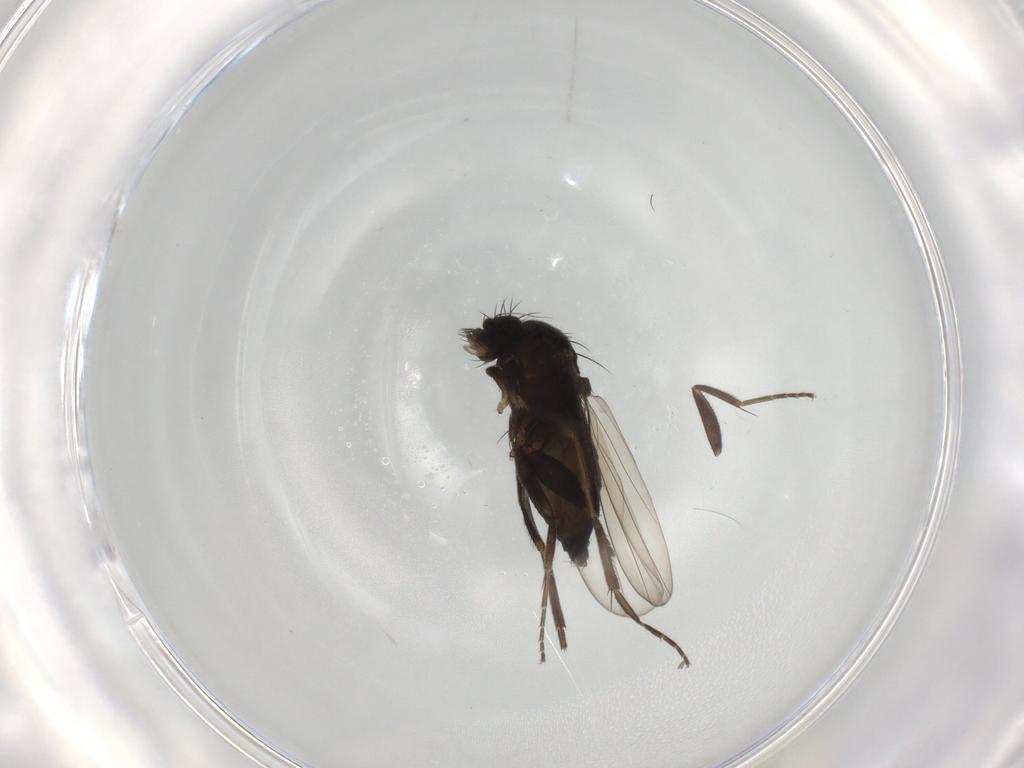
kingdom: Animalia
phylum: Arthropoda
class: Insecta
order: Diptera
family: Phoridae
